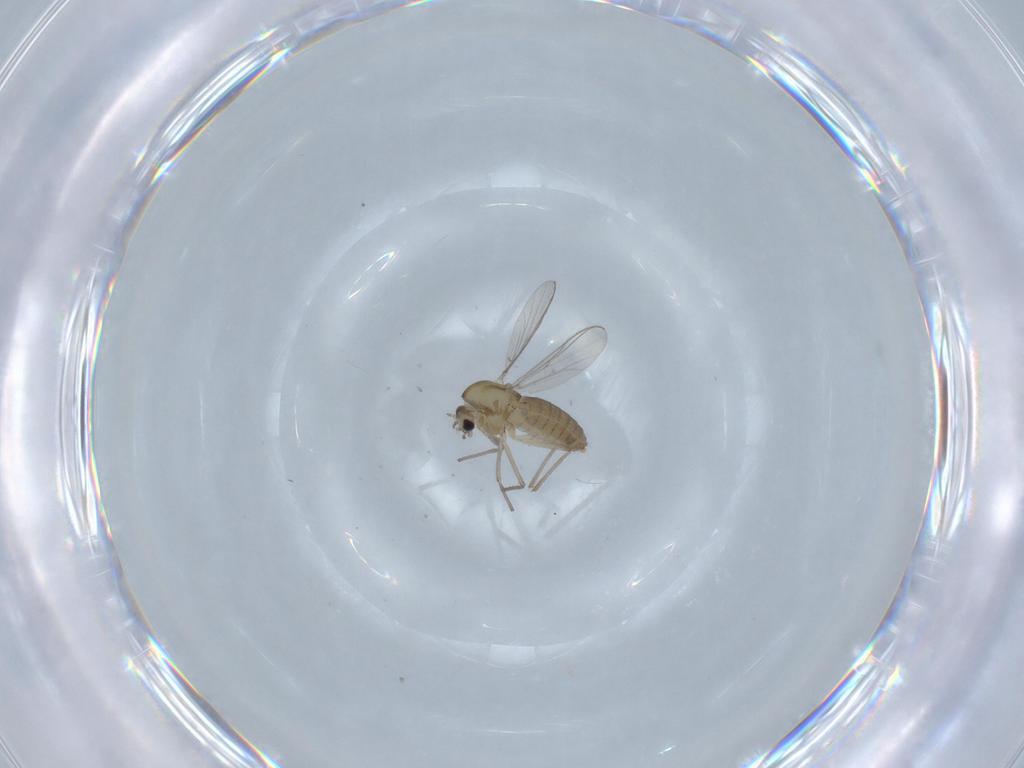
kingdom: Animalia
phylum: Arthropoda
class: Insecta
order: Diptera
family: Chironomidae
